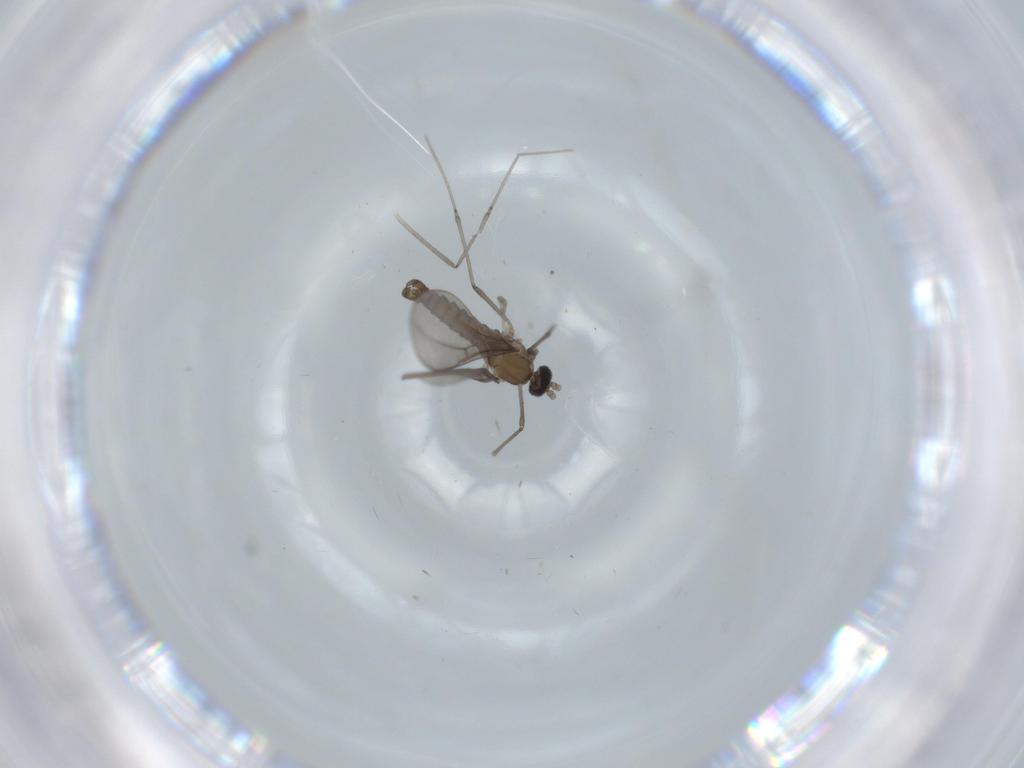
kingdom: Animalia
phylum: Arthropoda
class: Insecta
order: Diptera
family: Cecidomyiidae
